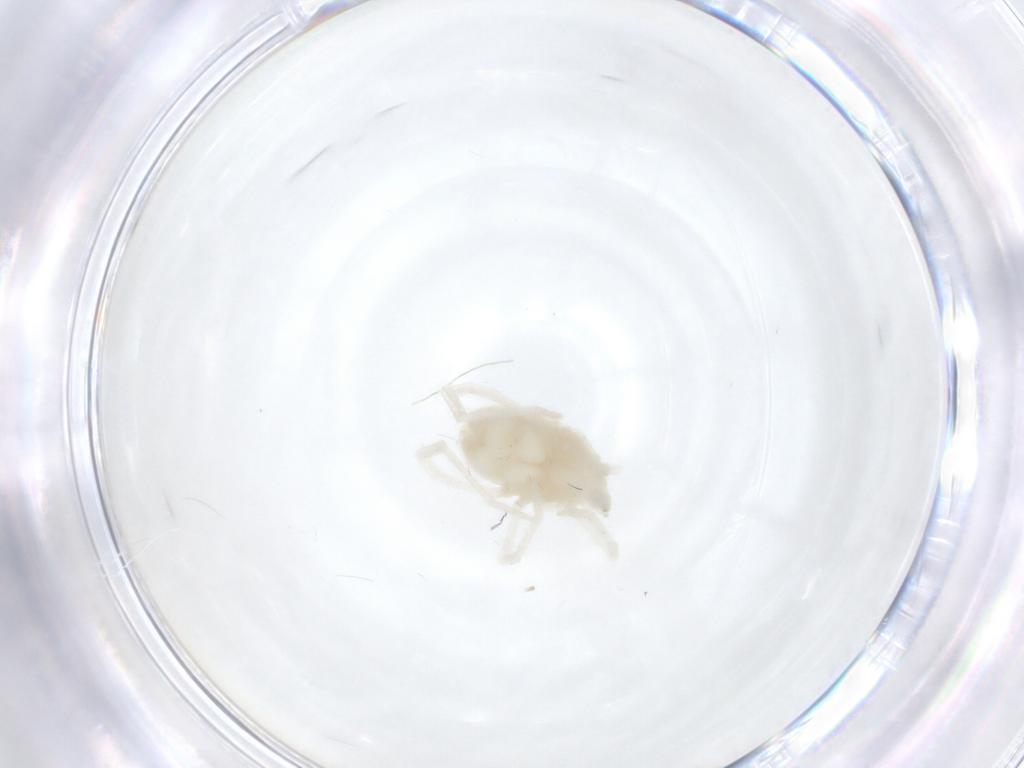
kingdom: Animalia
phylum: Arthropoda
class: Arachnida
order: Trombidiformes
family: Teneriffiidae
